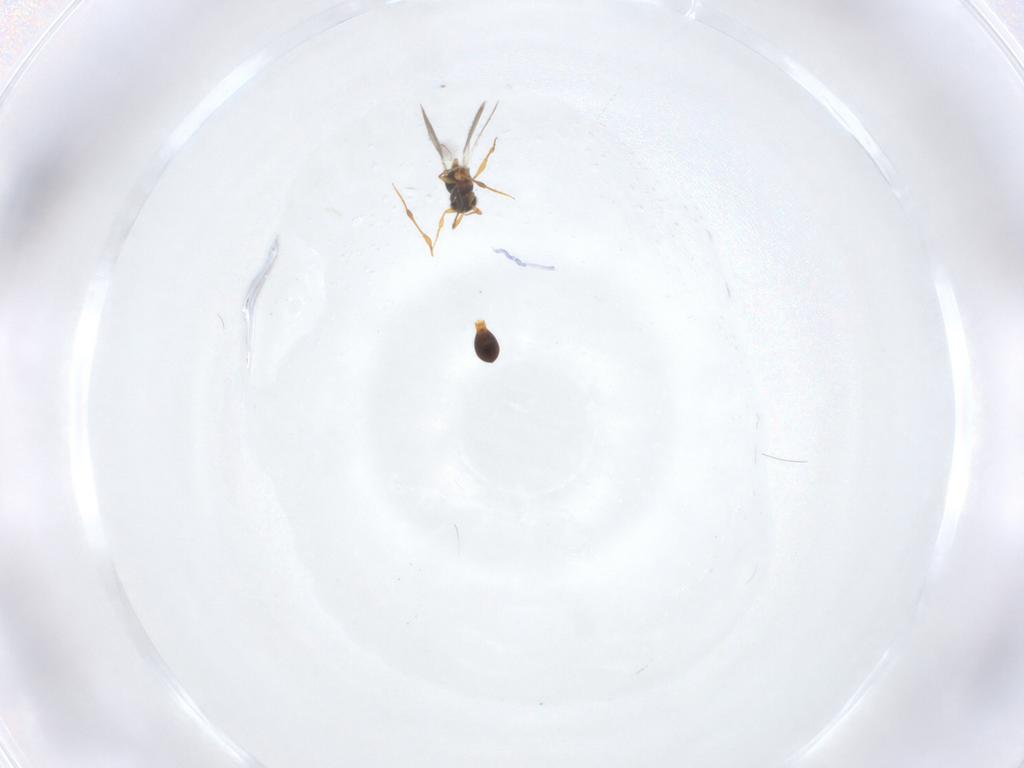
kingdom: Animalia
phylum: Arthropoda
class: Insecta
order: Hymenoptera
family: Platygastridae
